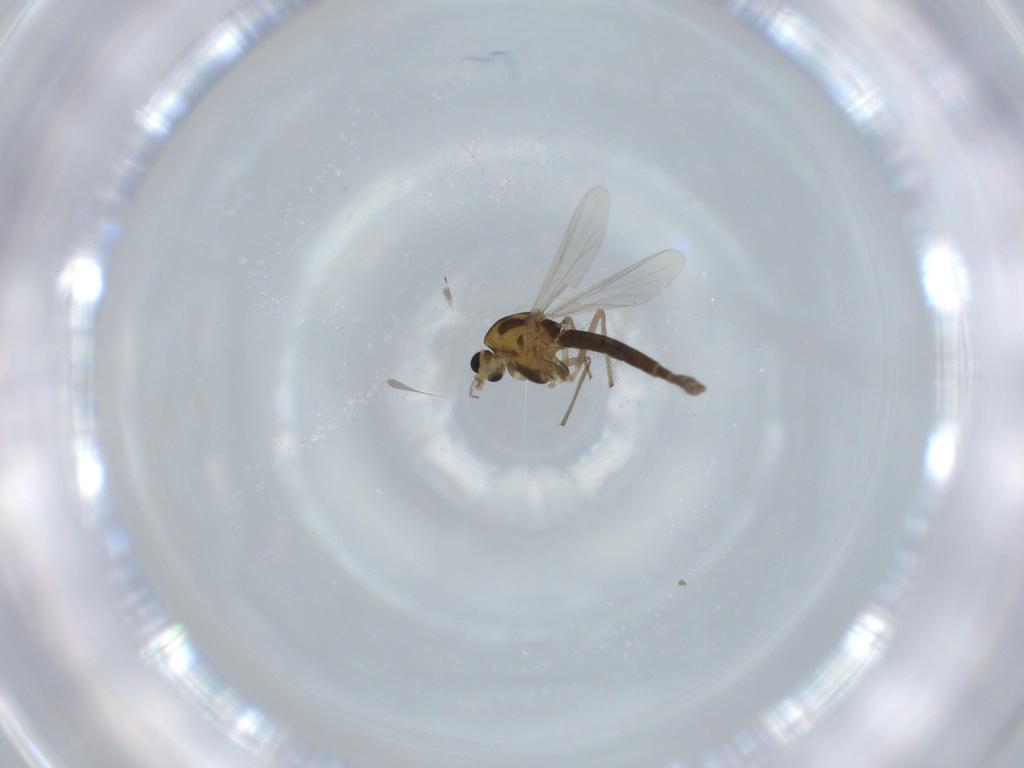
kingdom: Animalia
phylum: Arthropoda
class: Insecta
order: Diptera
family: Chironomidae
